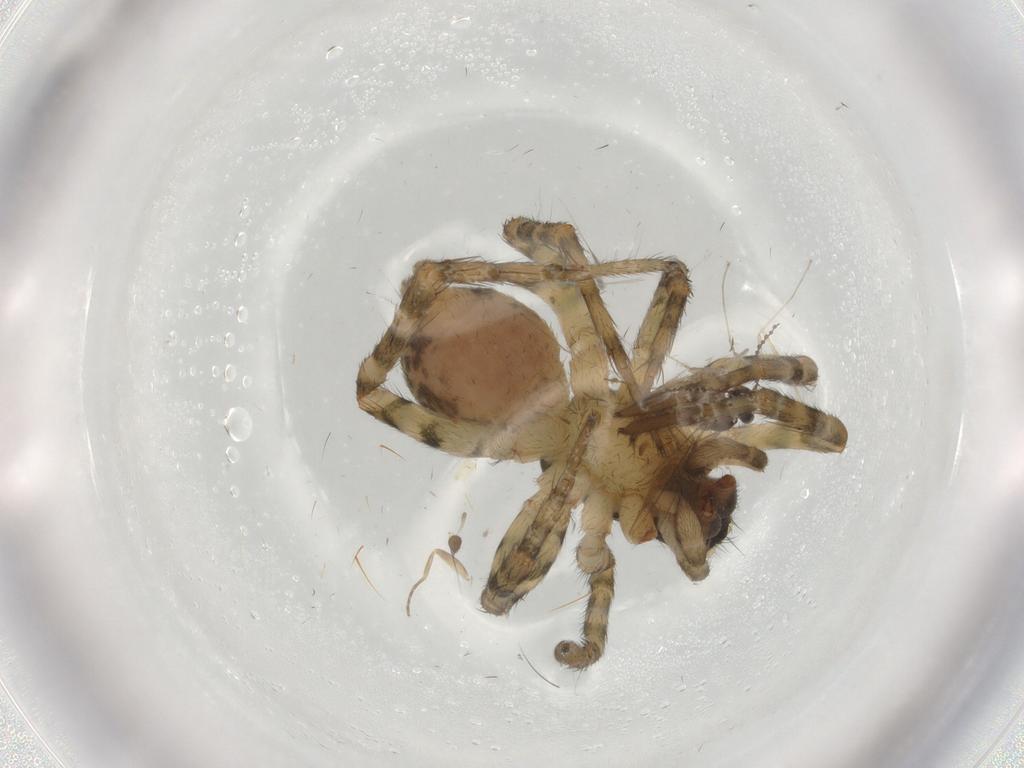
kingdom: Animalia
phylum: Arthropoda
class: Insecta
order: Diptera
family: Phoridae
